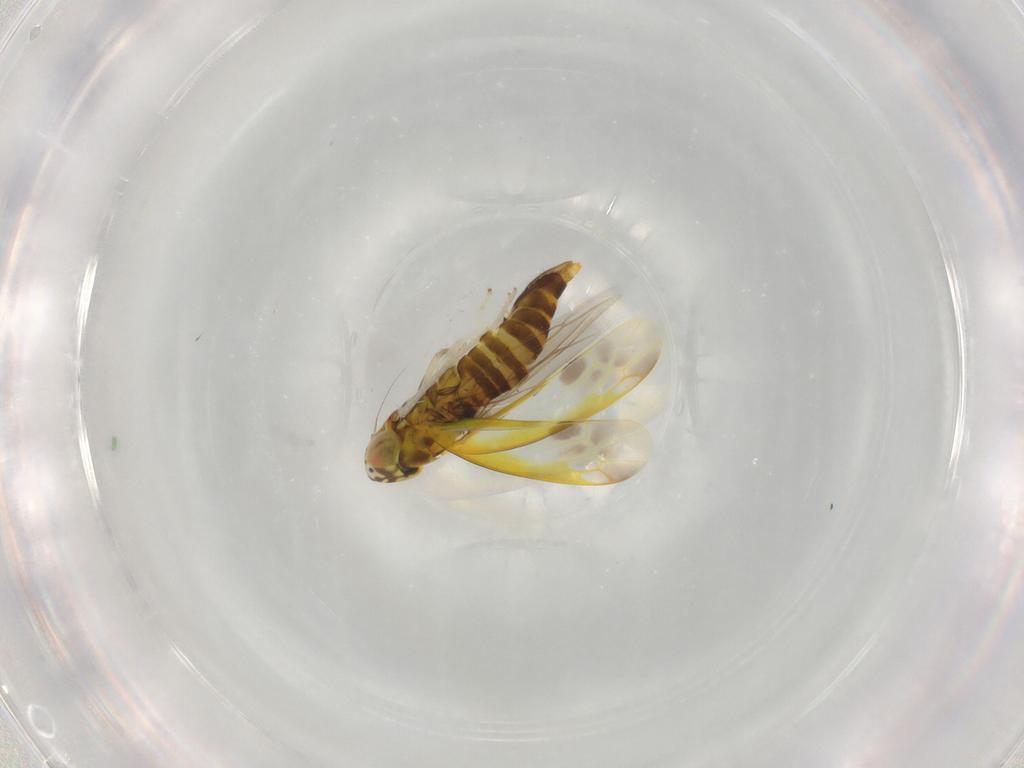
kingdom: Animalia
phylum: Arthropoda
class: Insecta
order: Hemiptera
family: Cicadellidae
